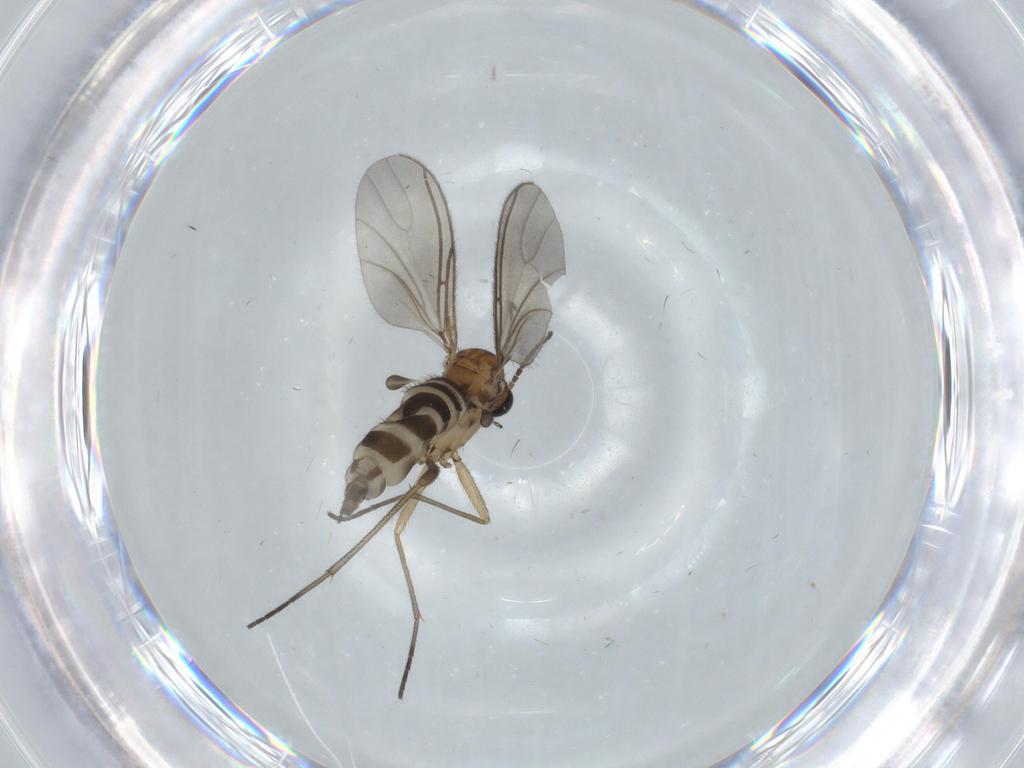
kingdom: Animalia
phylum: Arthropoda
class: Insecta
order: Diptera
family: Sciaridae
